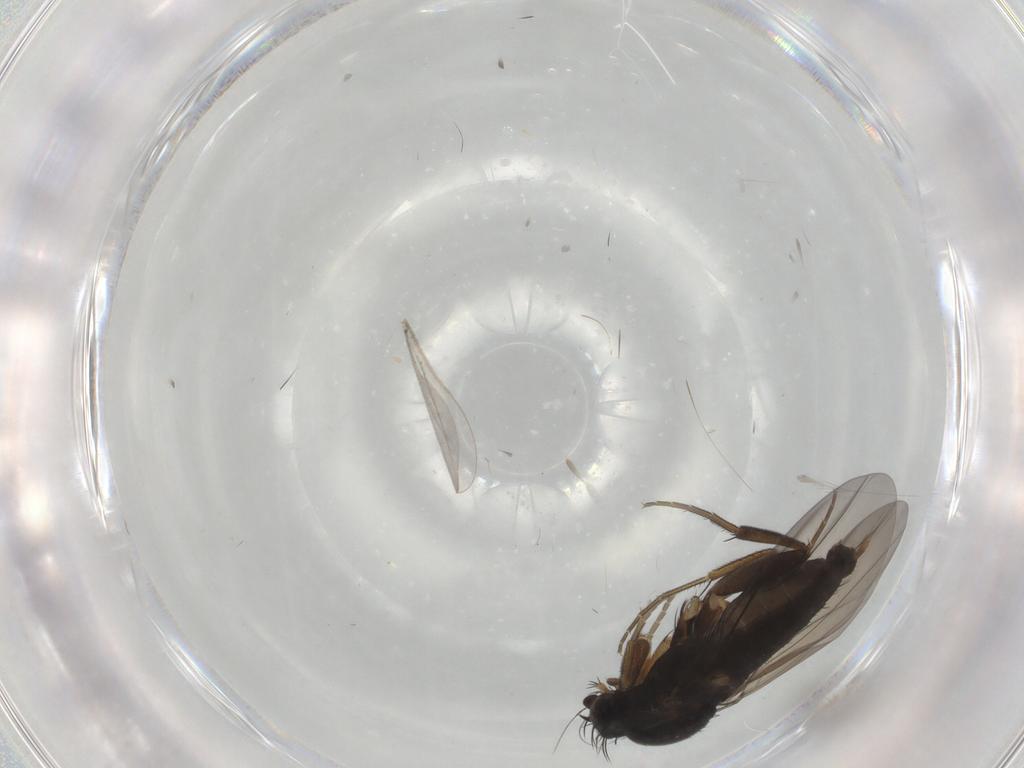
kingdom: Animalia
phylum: Arthropoda
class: Insecta
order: Diptera
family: Phoridae
